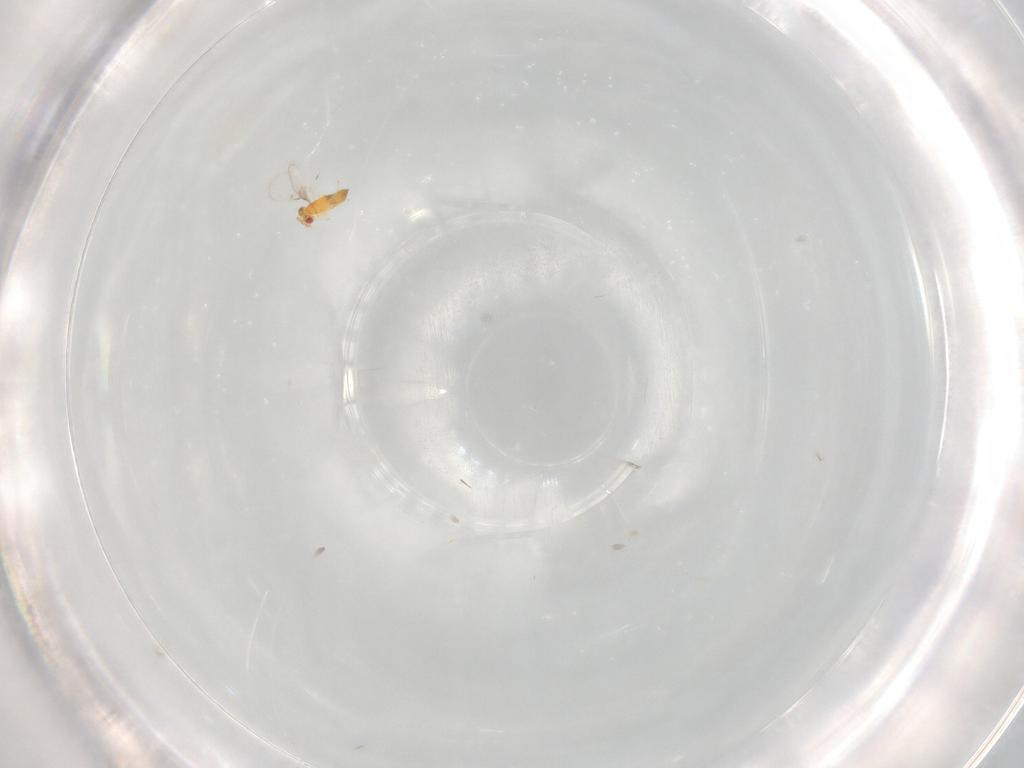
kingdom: Animalia
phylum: Arthropoda
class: Insecta
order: Hymenoptera
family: Trichogrammatidae
